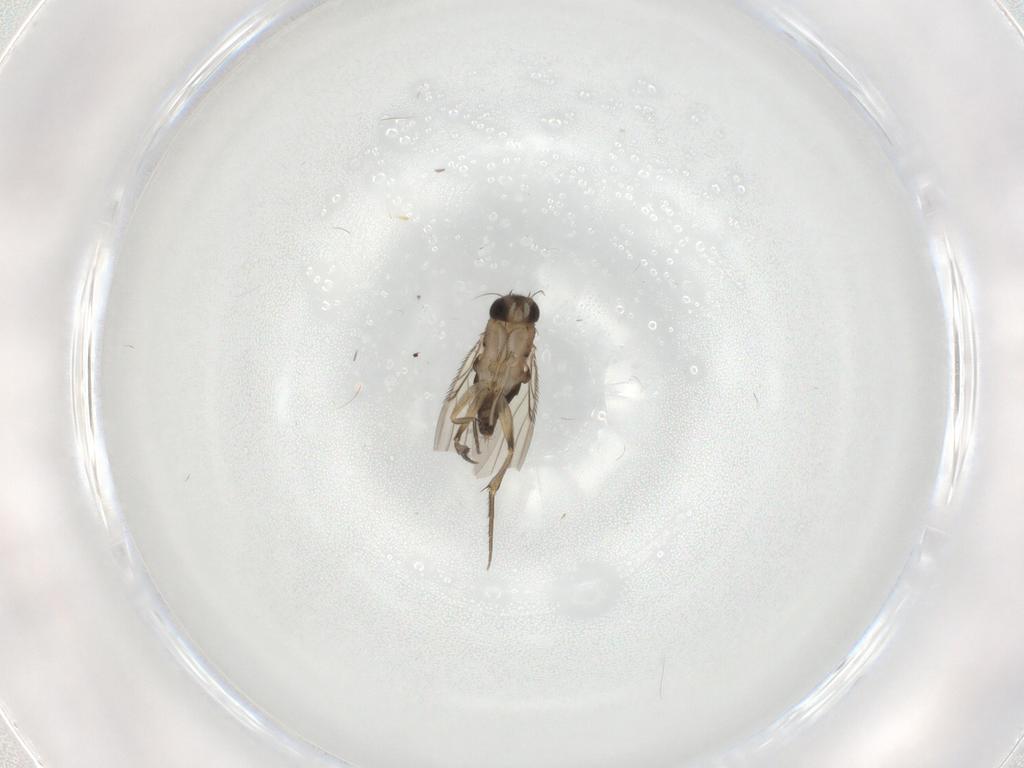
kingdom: Animalia
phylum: Arthropoda
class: Insecta
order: Diptera
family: Phoridae
